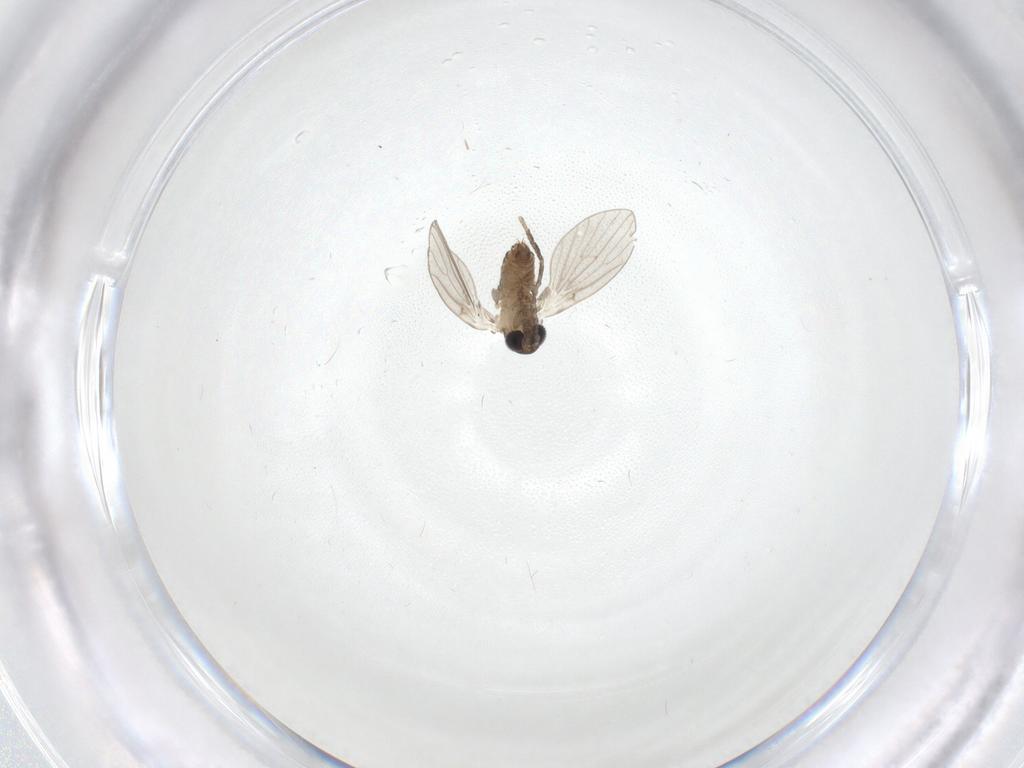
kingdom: Animalia
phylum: Arthropoda
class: Insecta
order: Diptera
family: Psychodidae
